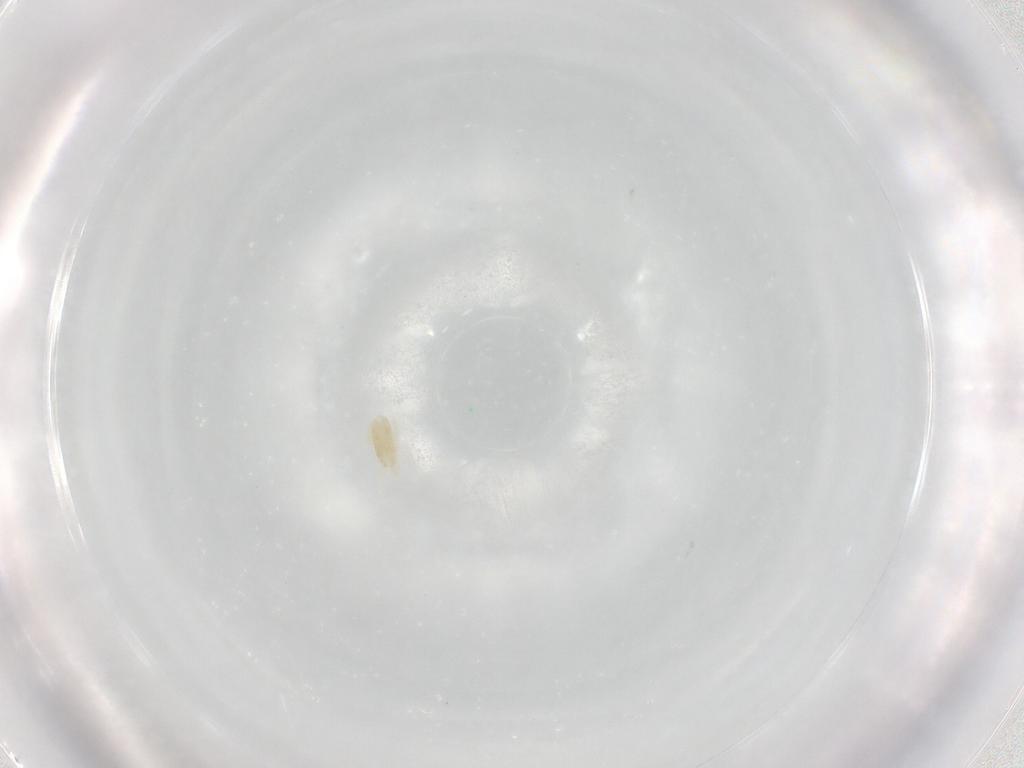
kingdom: Animalia
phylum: Arthropoda
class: Arachnida
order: Trombidiformes
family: Eupodidae
